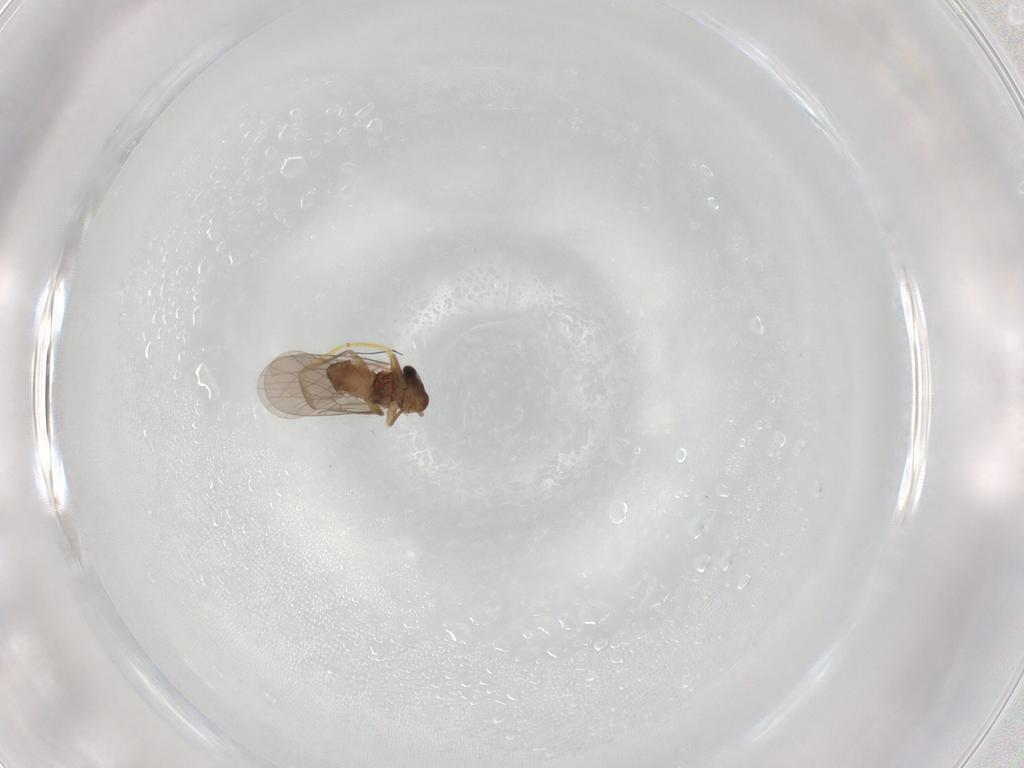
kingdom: Animalia
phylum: Arthropoda
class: Insecta
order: Psocodea
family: Lepidopsocidae
